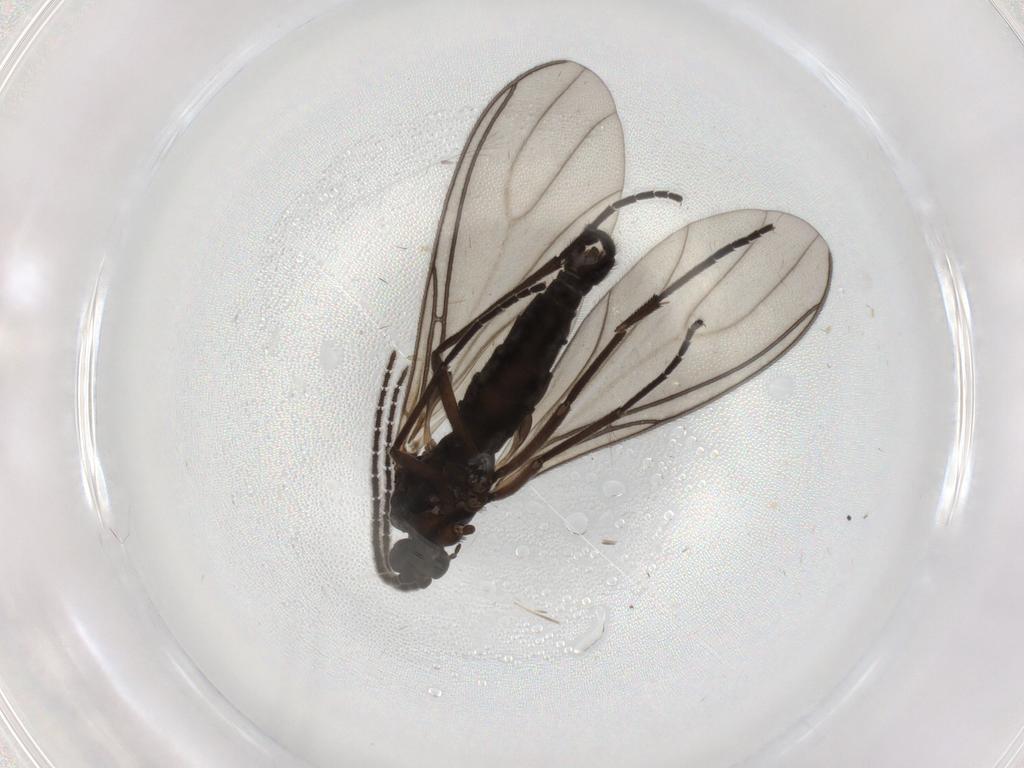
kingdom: Animalia
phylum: Arthropoda
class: Insecta
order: Diptera
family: Sciaridae
